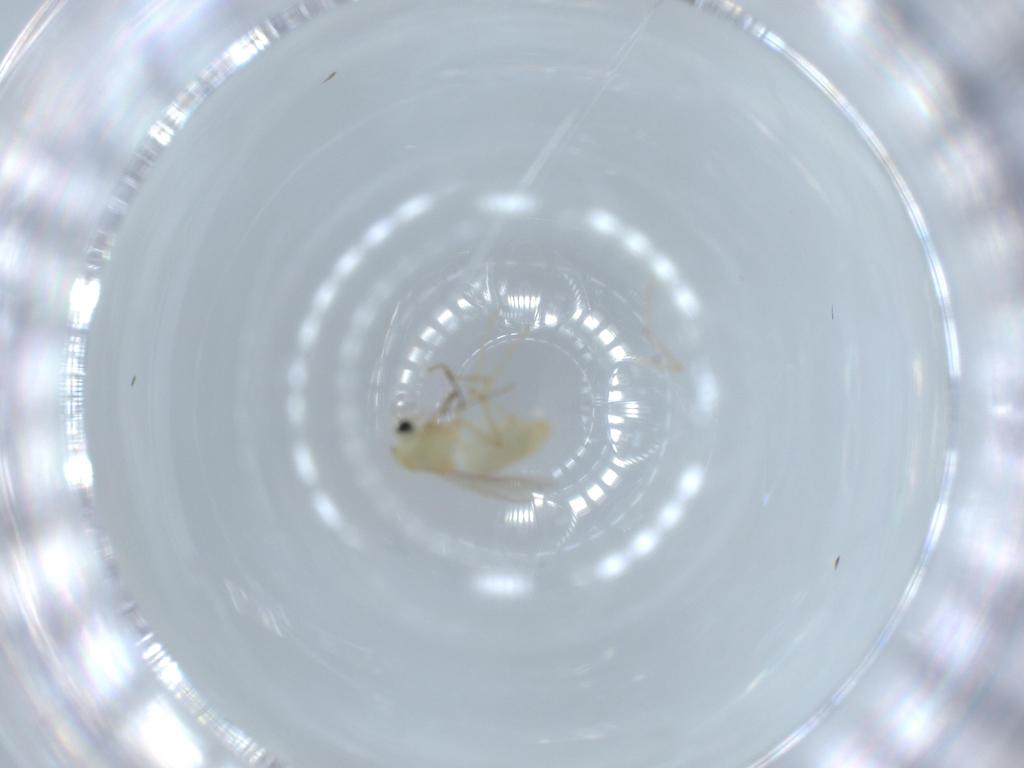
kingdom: Animalia
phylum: Arthropoda
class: Insecta
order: Diptera
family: Chironomidae
